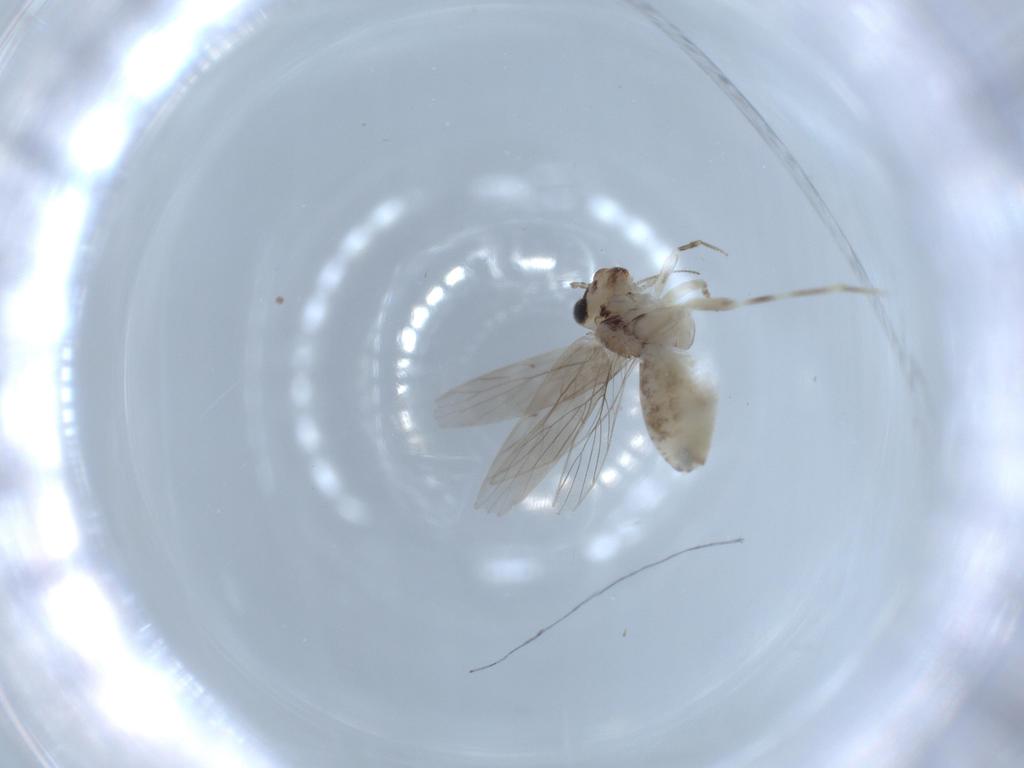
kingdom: Animalia
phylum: Arthropoda
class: Insecta
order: Psocodea
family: Lepidopsocidae
